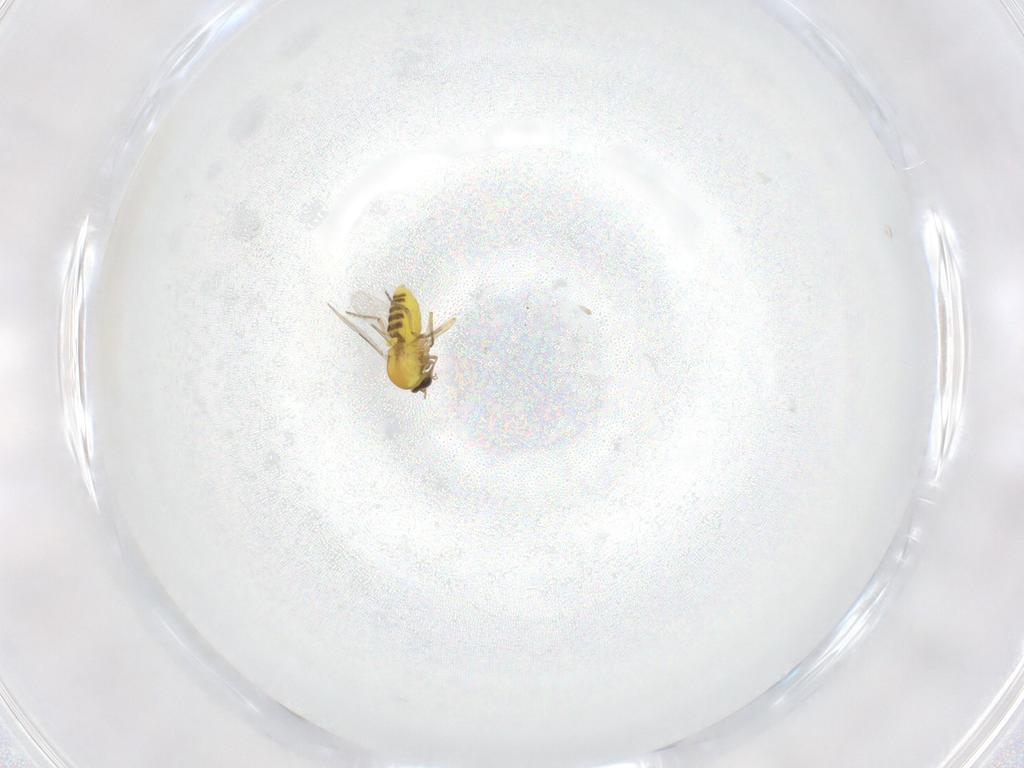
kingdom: Animalia
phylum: Arthropoda
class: Insecta
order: Diptera
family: Ceratopogonidae
